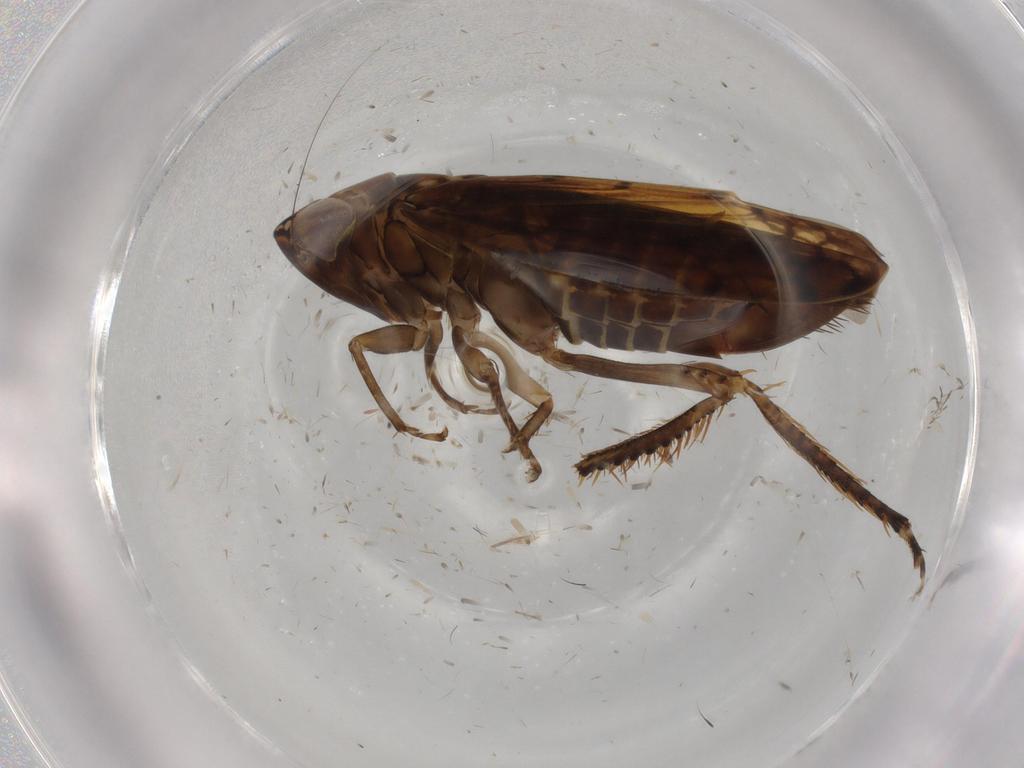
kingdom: Animalia
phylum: Arthropoda
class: Insecta
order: Hemiptera
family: Cicadellidae
